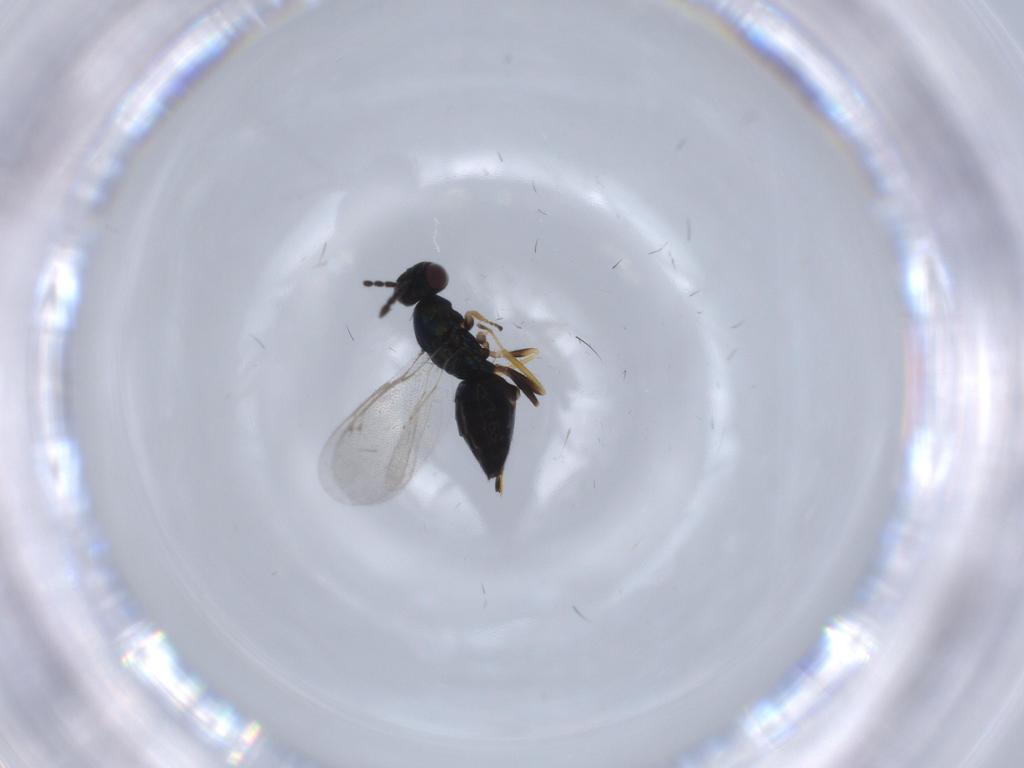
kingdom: Animalia
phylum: Arthropoda
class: Insecta
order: Hymenoptera
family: Eulophidae
